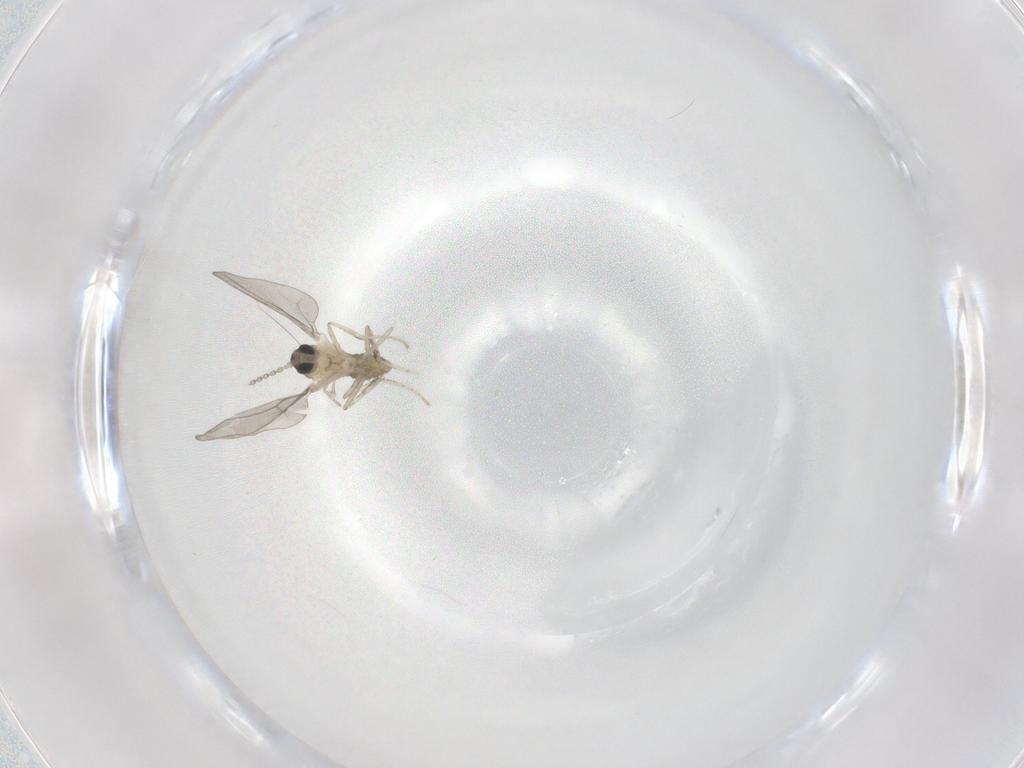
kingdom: Animalia
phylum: Arthropoda
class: Insecta
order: Diptera
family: Cecidomyiidae
